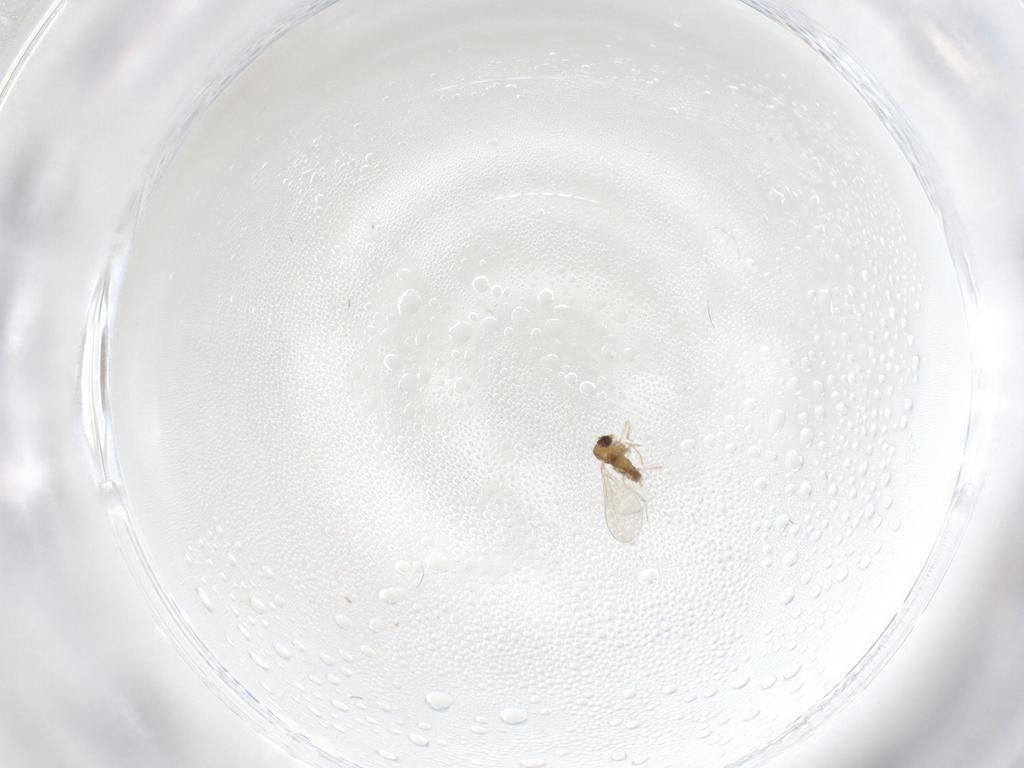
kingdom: Animalia
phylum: Arthropoda
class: Insecta
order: Diptera
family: Cecidomyiidae
